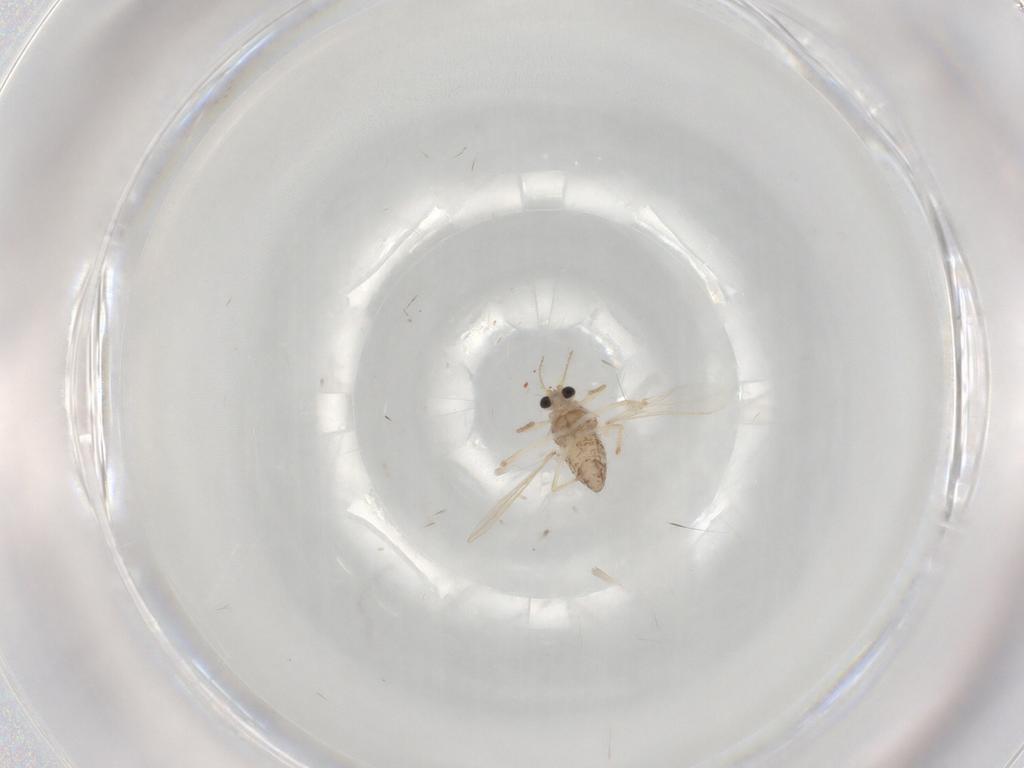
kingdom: Animalia
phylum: Arthropoda
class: Insecta
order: Diptera
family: Chironomidae
